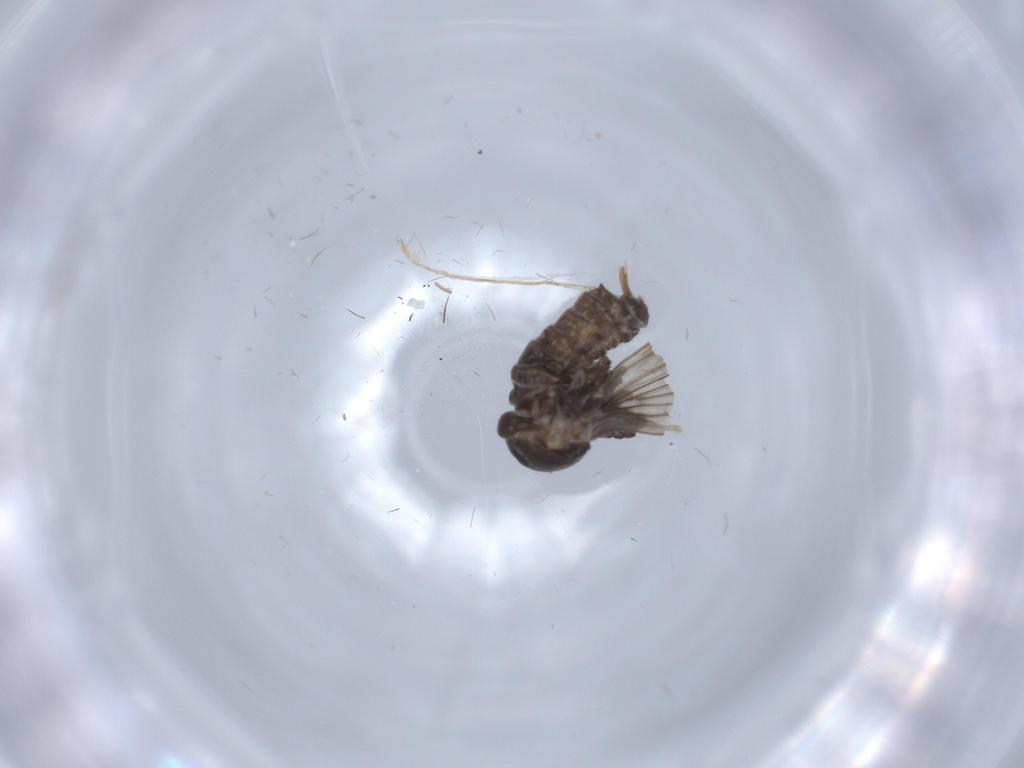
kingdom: Animalia
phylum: Arthropoda
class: Insecta
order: Diptera
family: Psychodidae
